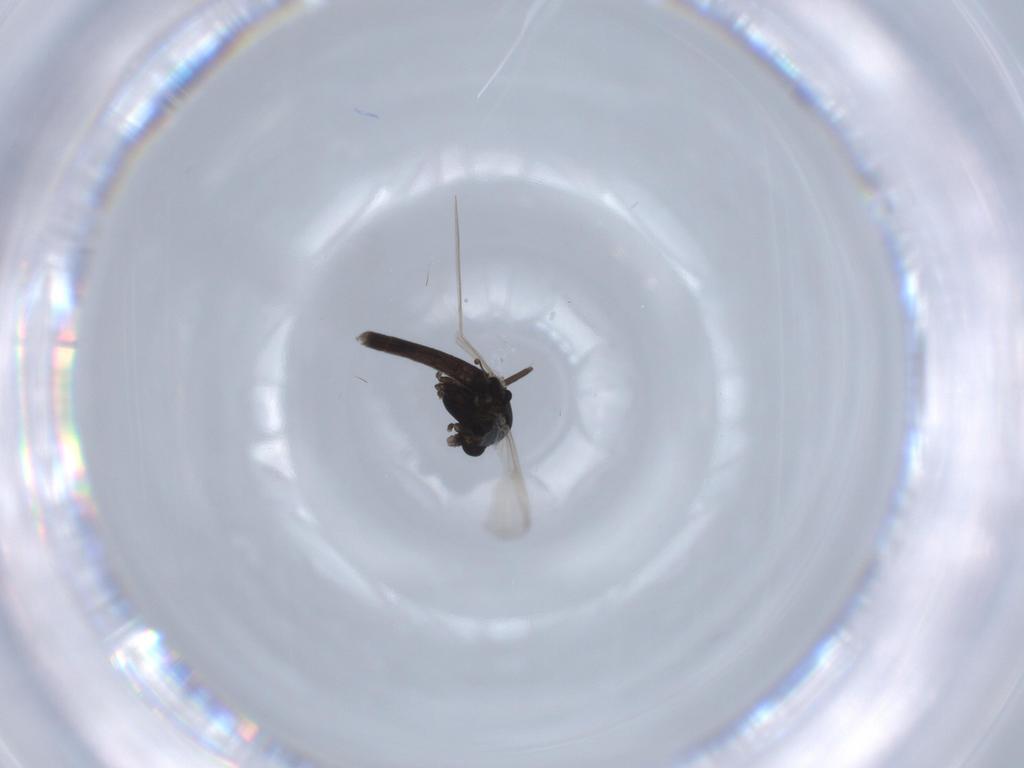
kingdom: Animalia
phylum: Arthropoda
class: Insecta
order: Diptera
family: Chironomidae
